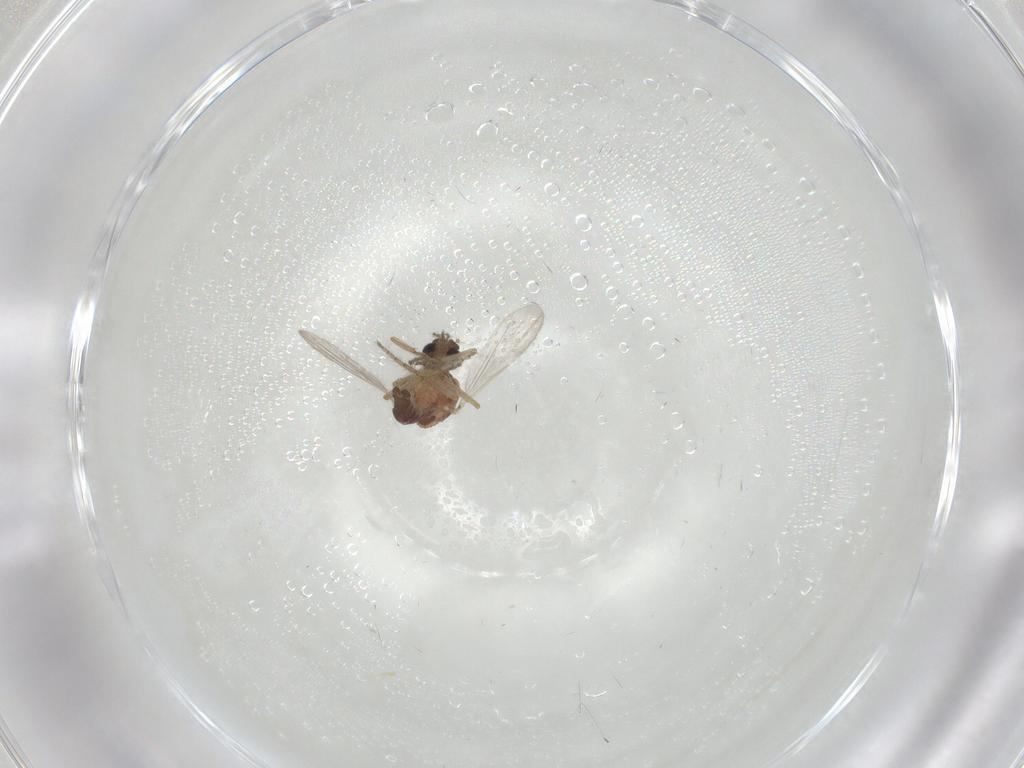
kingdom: Animalia
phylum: Arthropoda
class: Insecta
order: Diptera
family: Ceratopogonidae
